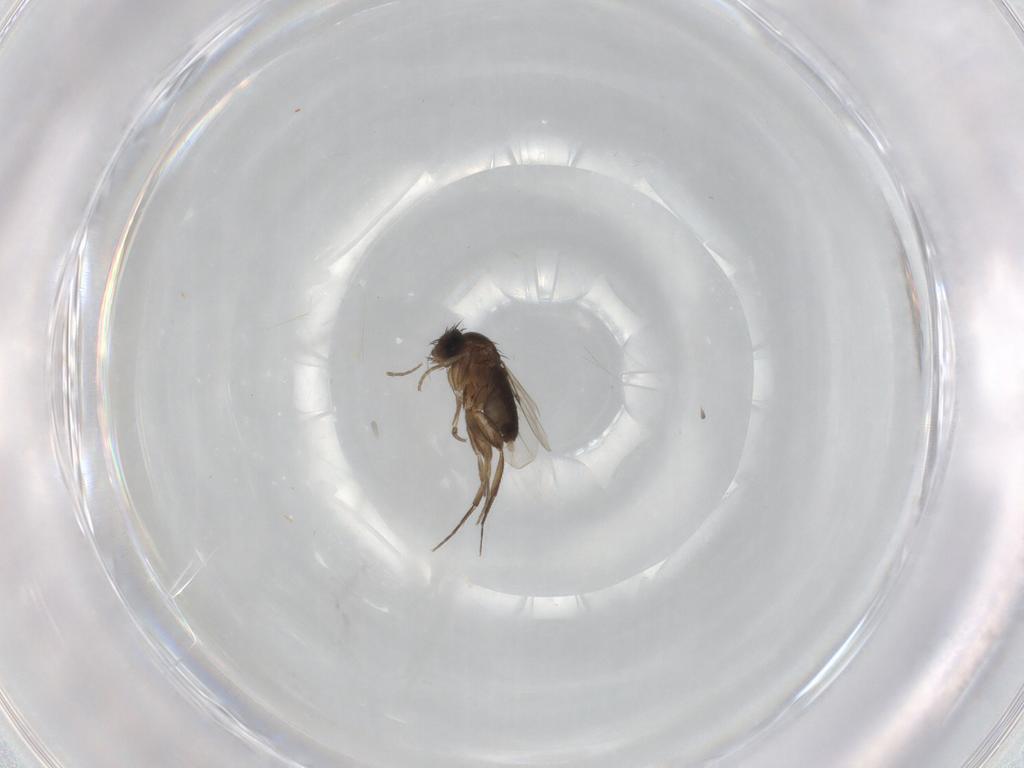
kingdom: Animalia
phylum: Arthropoda
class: Insecta
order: Diptera
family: Phoridae
